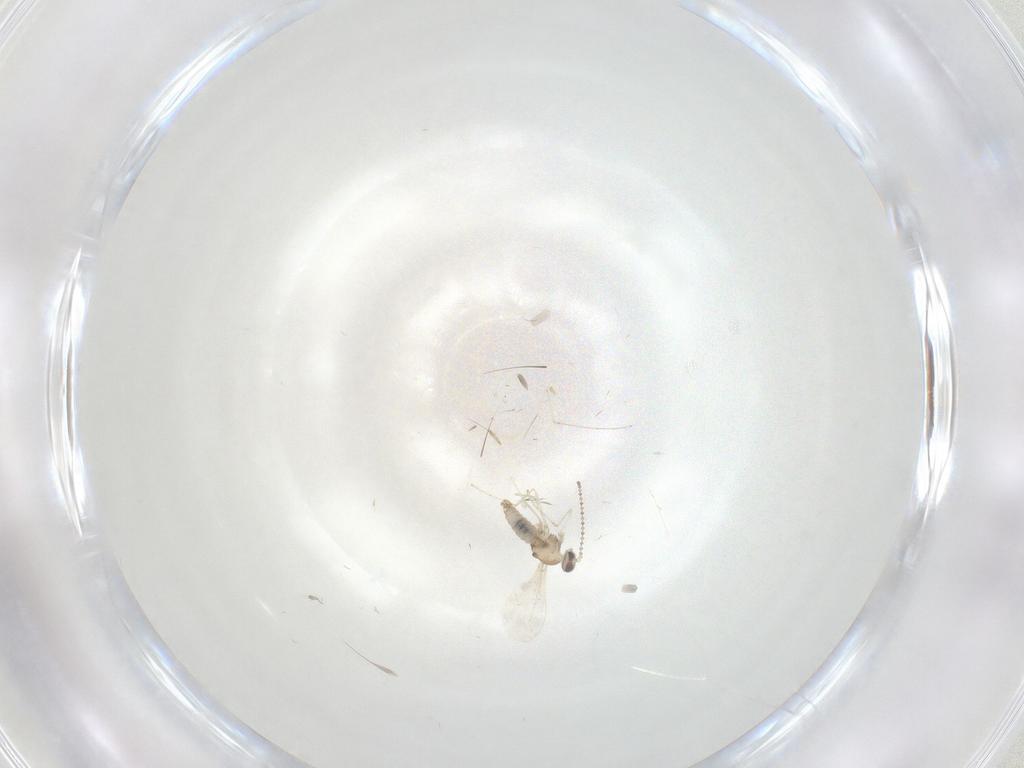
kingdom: Animalia
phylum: Arthropoda
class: Insecta
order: Diptera
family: Cecidomyiidae
